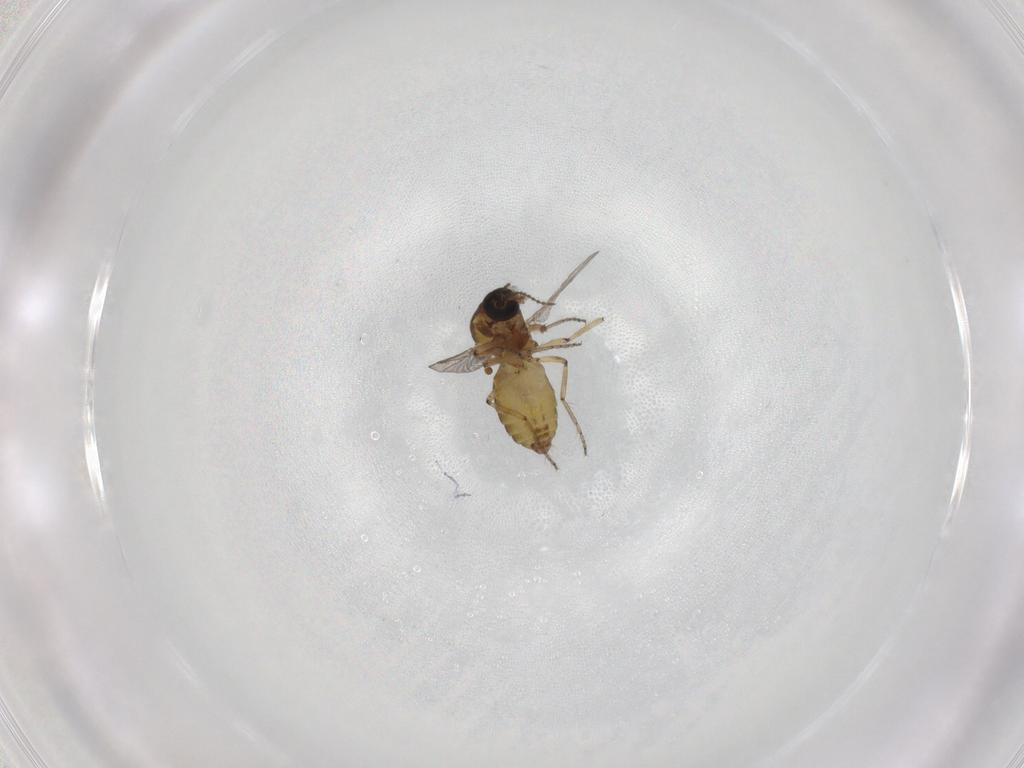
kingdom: Animalia
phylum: Arthropoda
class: Insecta
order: Diptera
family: Ceratopogonidae
